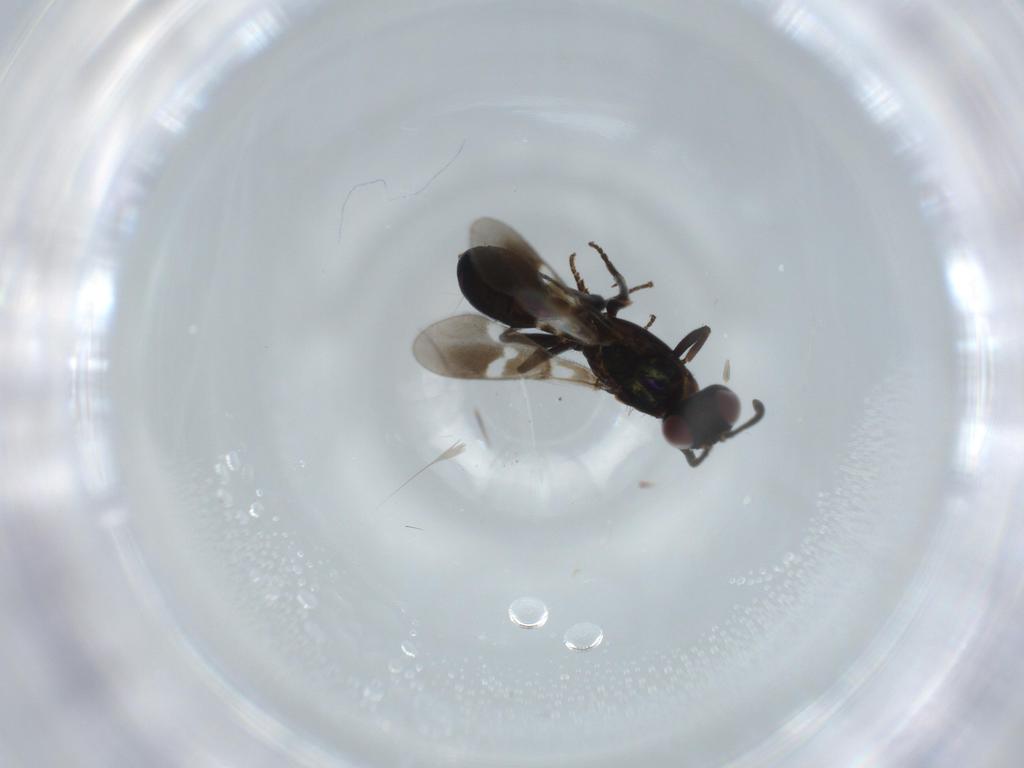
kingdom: Animalia
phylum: Arthropoda
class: Insecta
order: Hymenoptera
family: Eupelmidae
